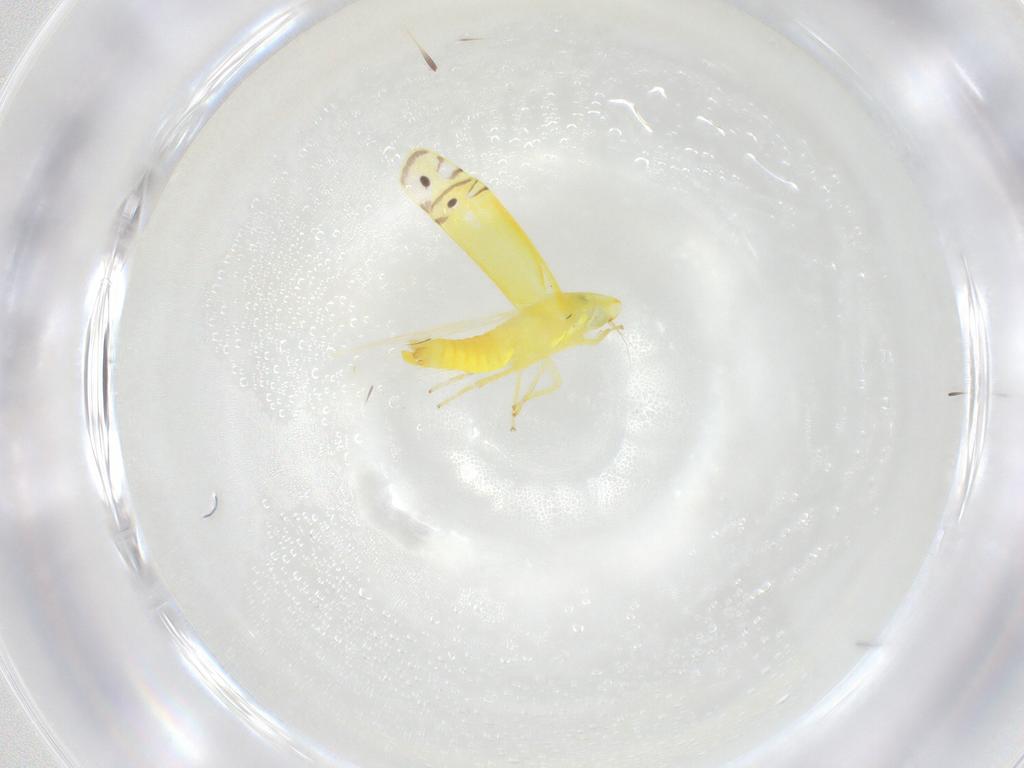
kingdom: Animalia
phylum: Arthropoda
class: Insecta
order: Hemiptera
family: Cicadellidae
